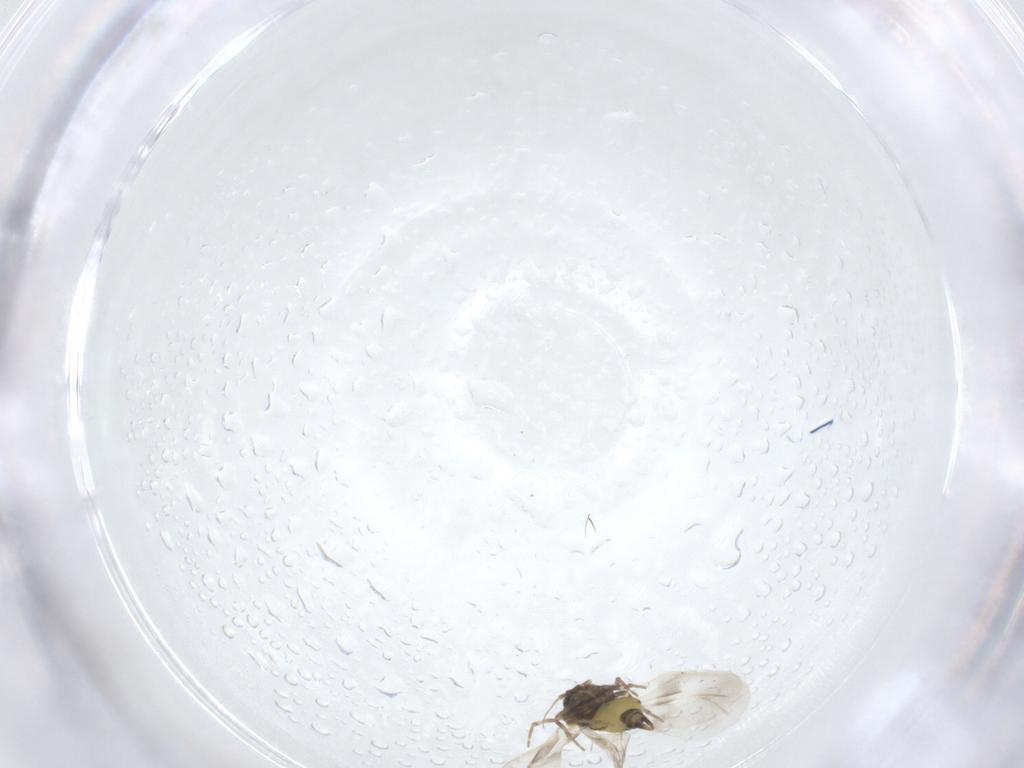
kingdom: Animalia
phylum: Arthropoda
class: Insecta
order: Hemiptera
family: Aleyrodidae
